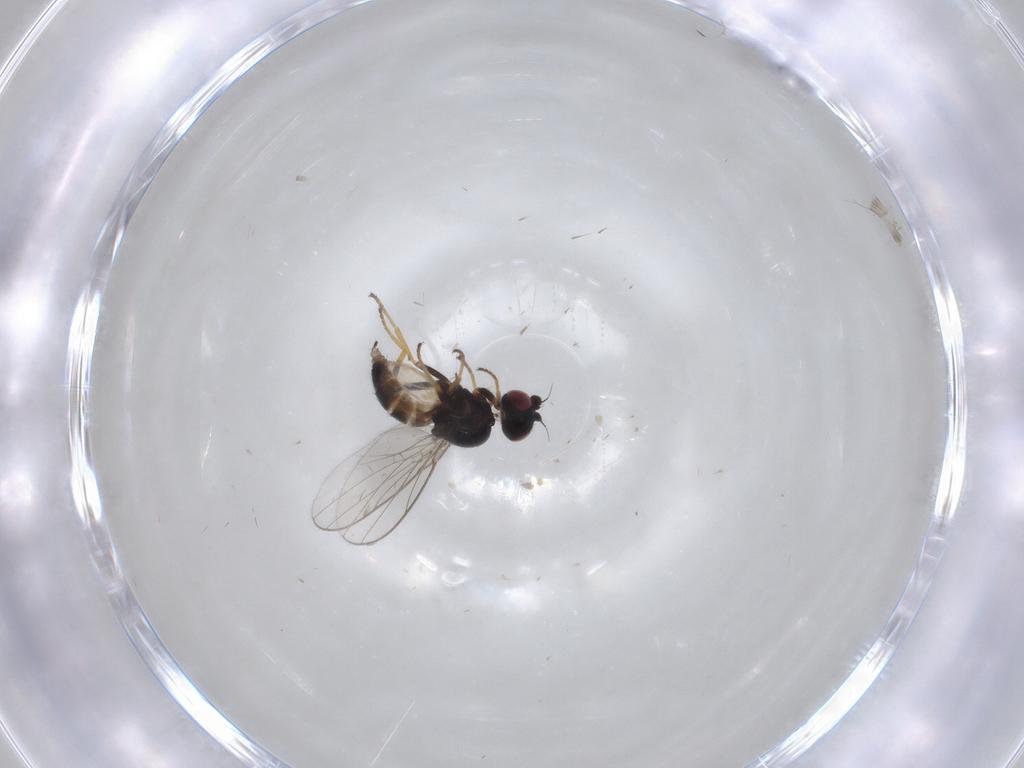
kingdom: Animalia
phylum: Arthropoda
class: Insecta
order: Diptera
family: Chloropidae
